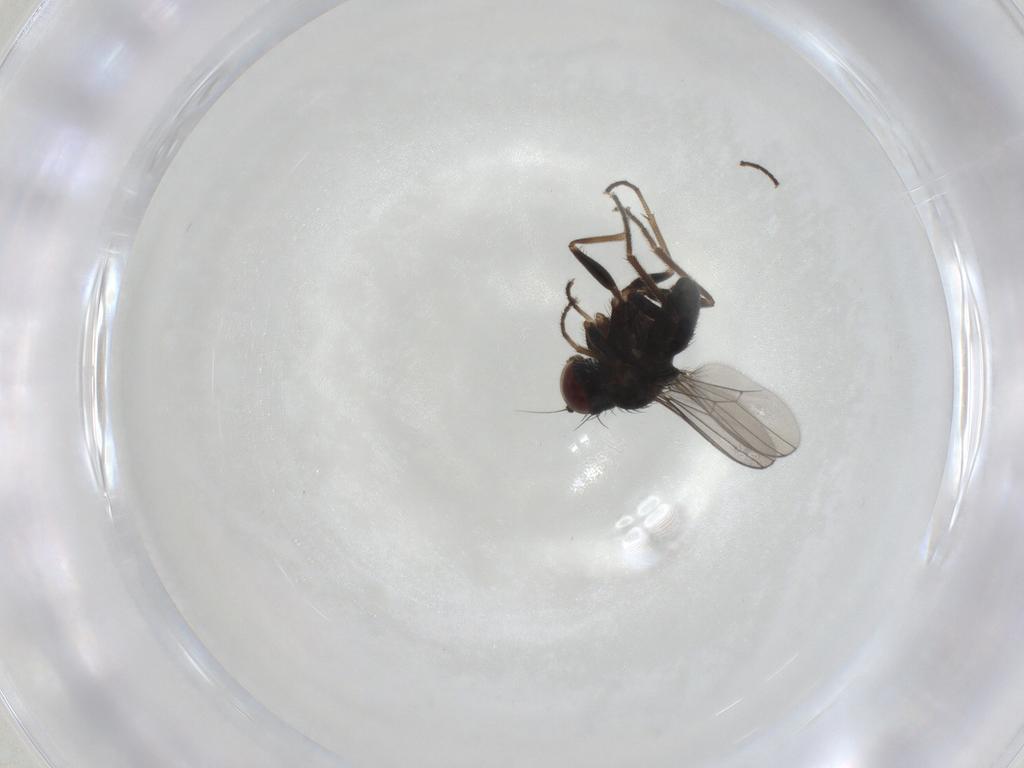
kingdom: Animalia
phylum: Arthropoda
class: Insecta
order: Diptera
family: Dolichopodidae
